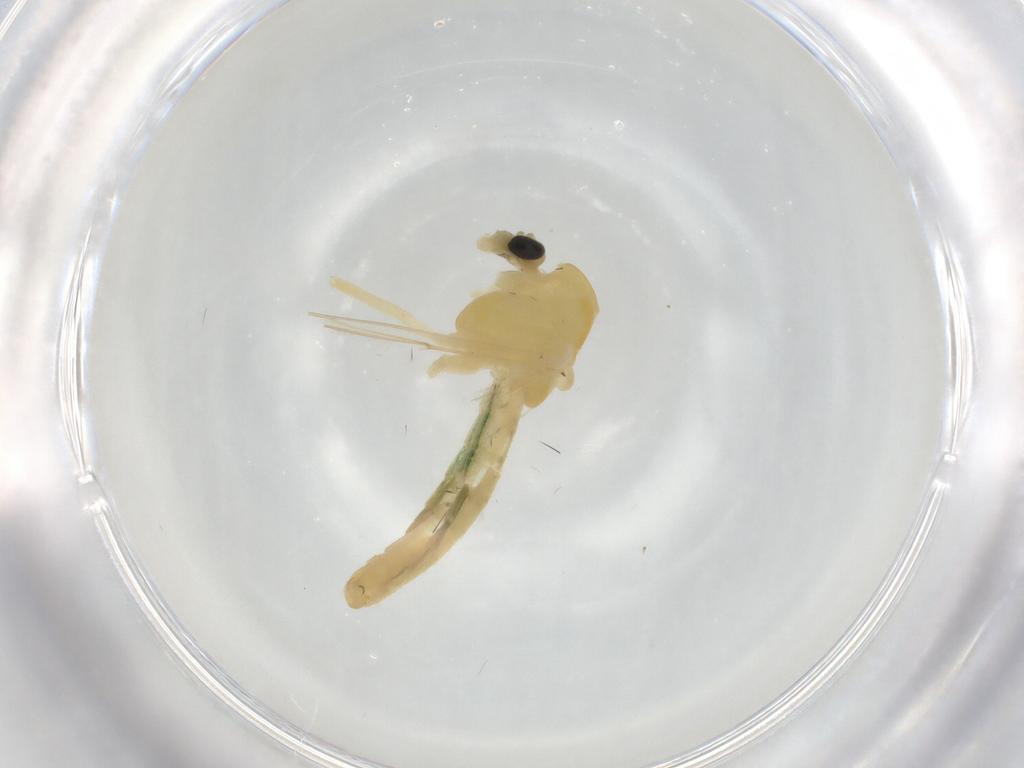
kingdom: Animalia
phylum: Arthropoda
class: Insecta
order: Diptera
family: Chironomidae
